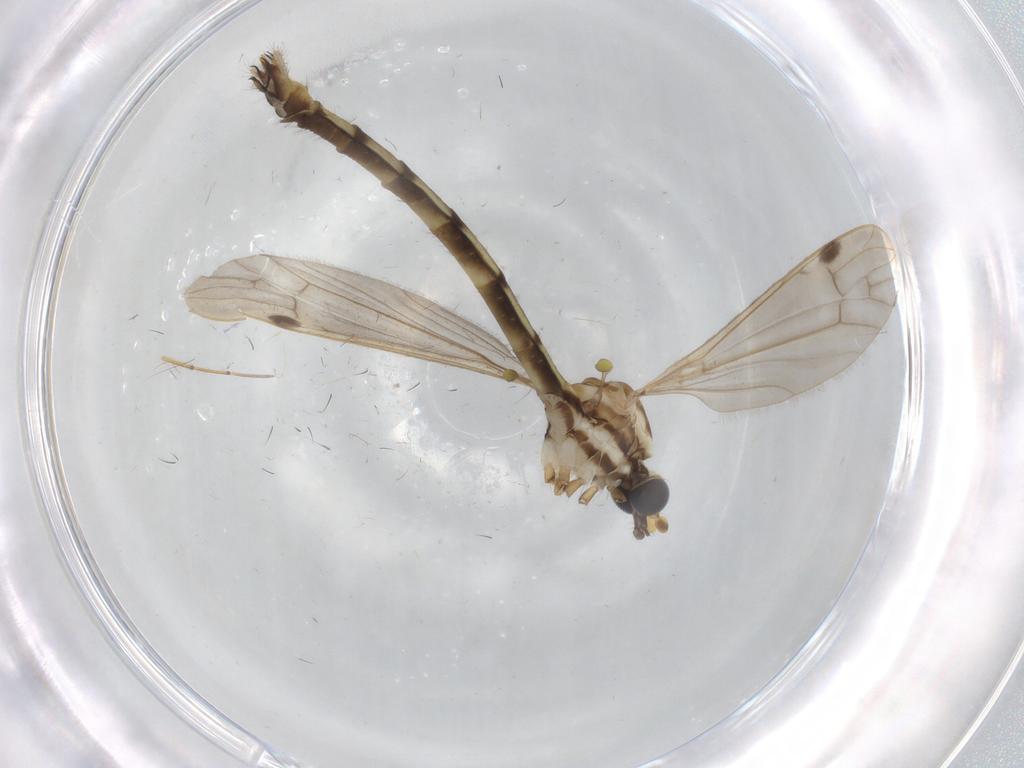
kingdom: Animalia
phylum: Arthropoda
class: Insecta
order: Diptera
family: Cecidomyiidae
